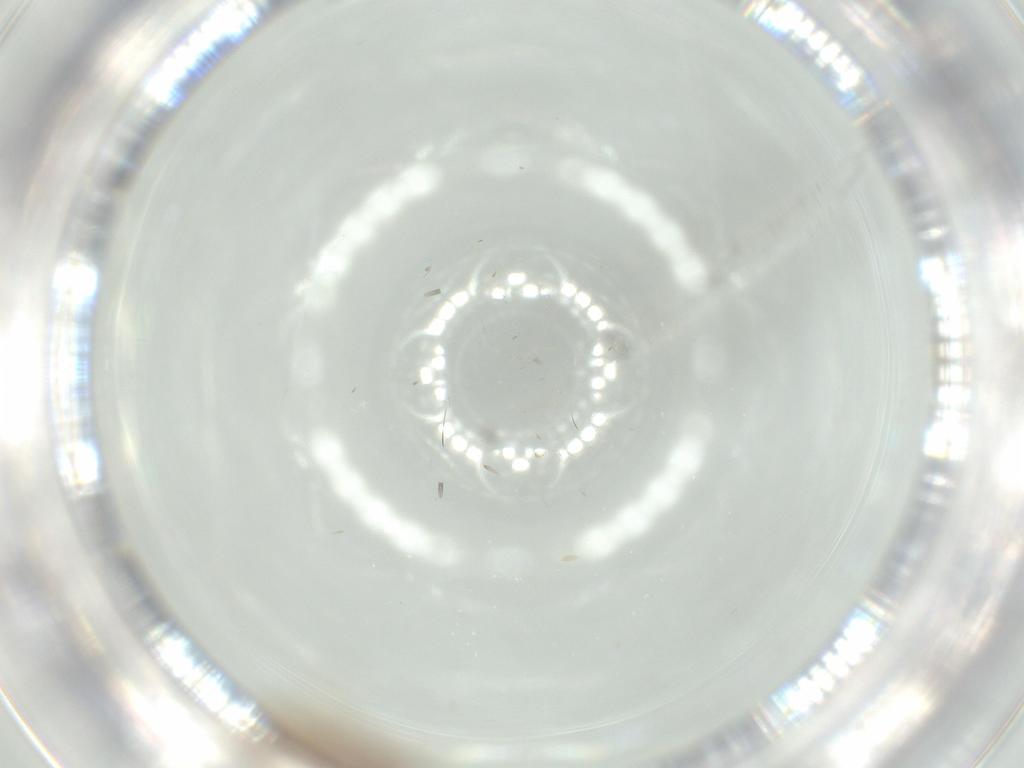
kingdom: Animalia
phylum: Arthropoda
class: Insecta
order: Hymenoptera
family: Scelionidae
